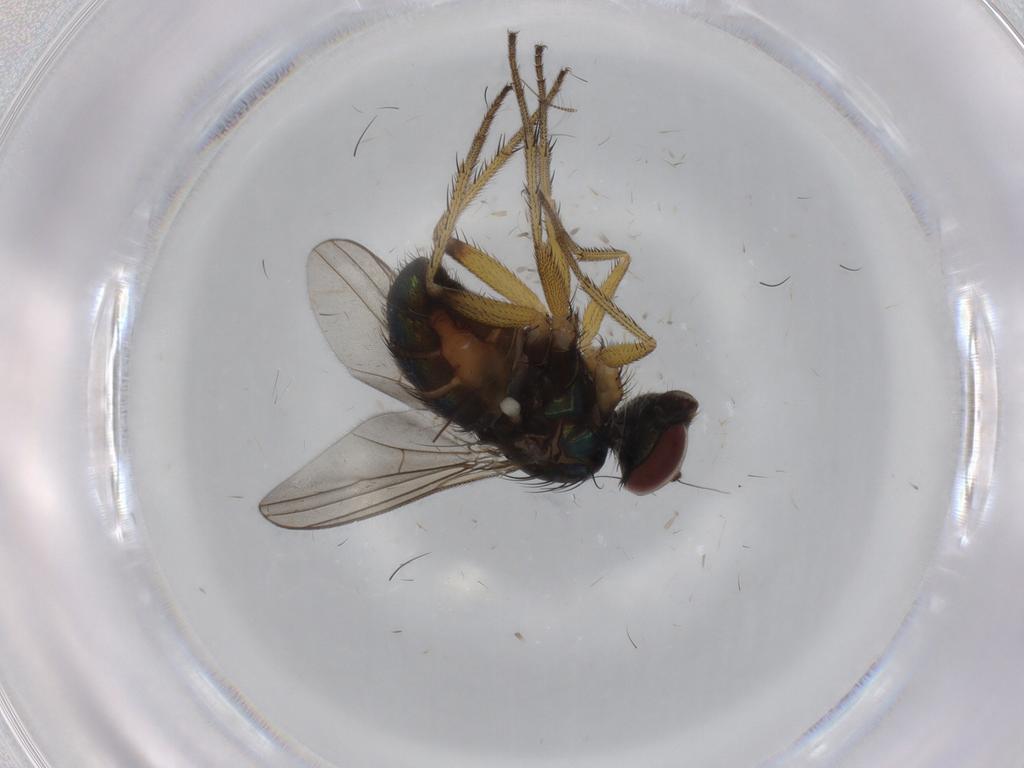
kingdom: Animalia
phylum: Arthropoda
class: Insecta
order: Diptera
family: Dolichopodidae
